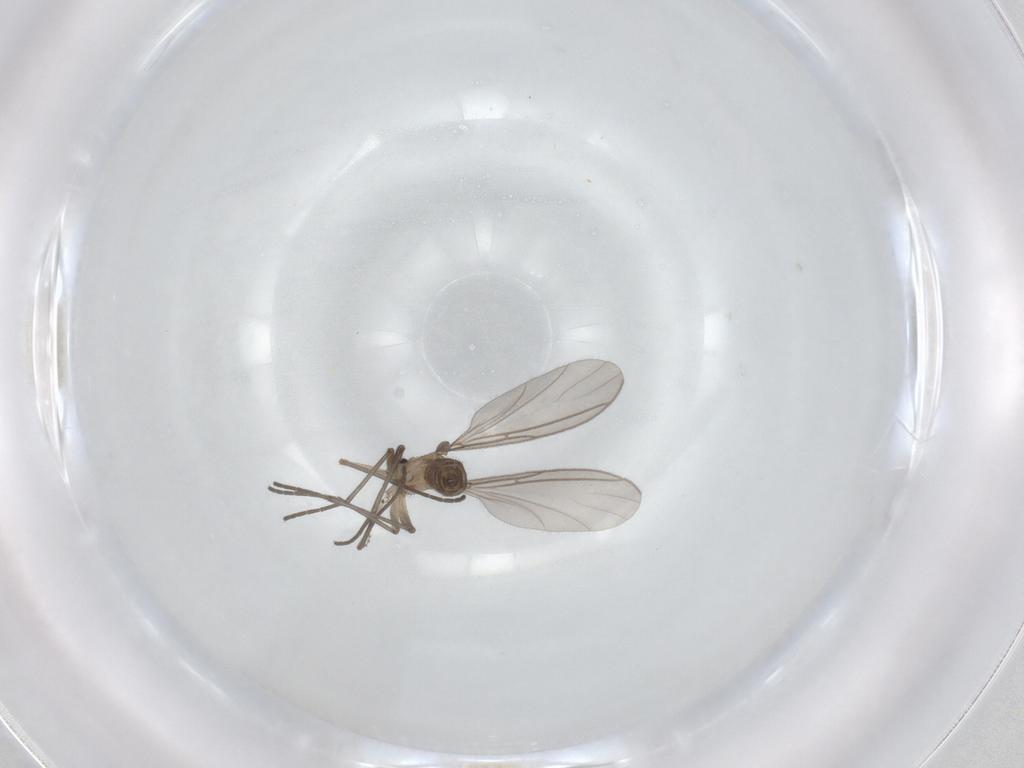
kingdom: Animalia
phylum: Arthropoda
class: Insecta
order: Diptera
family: Sciaridae
